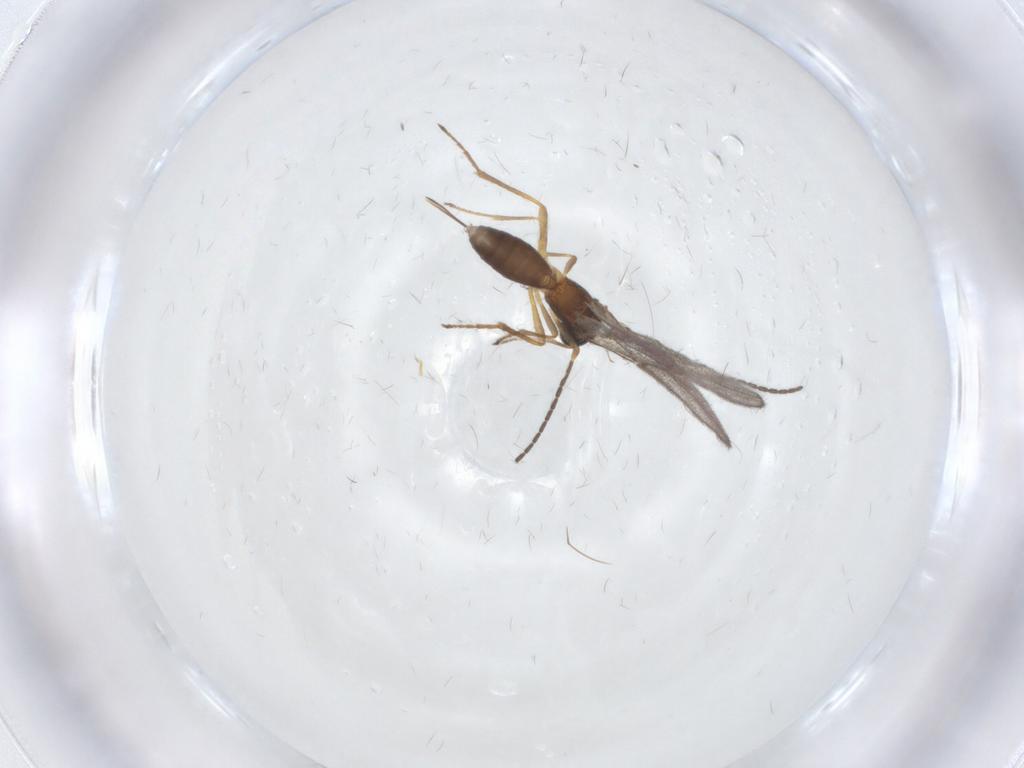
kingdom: Animalia
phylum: Arthropoda
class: Insecta
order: Hymenoptera
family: Braconidae
